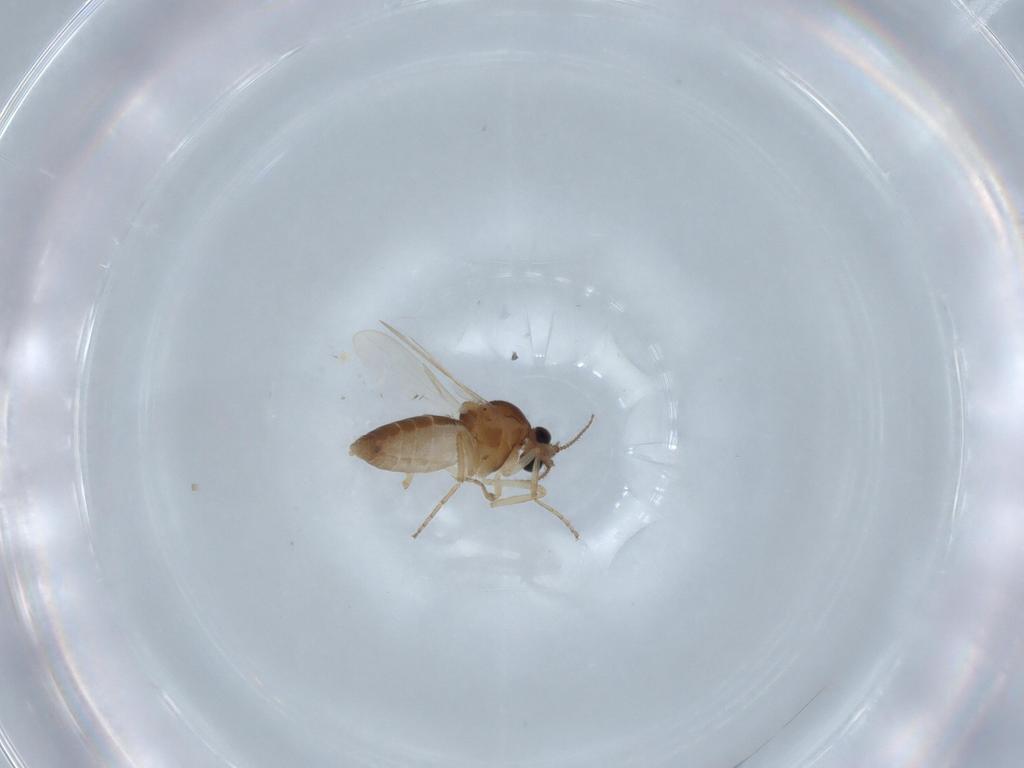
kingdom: Animalia
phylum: Arthropoda
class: Insecta
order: Diptera
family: Ceratopogonidae
